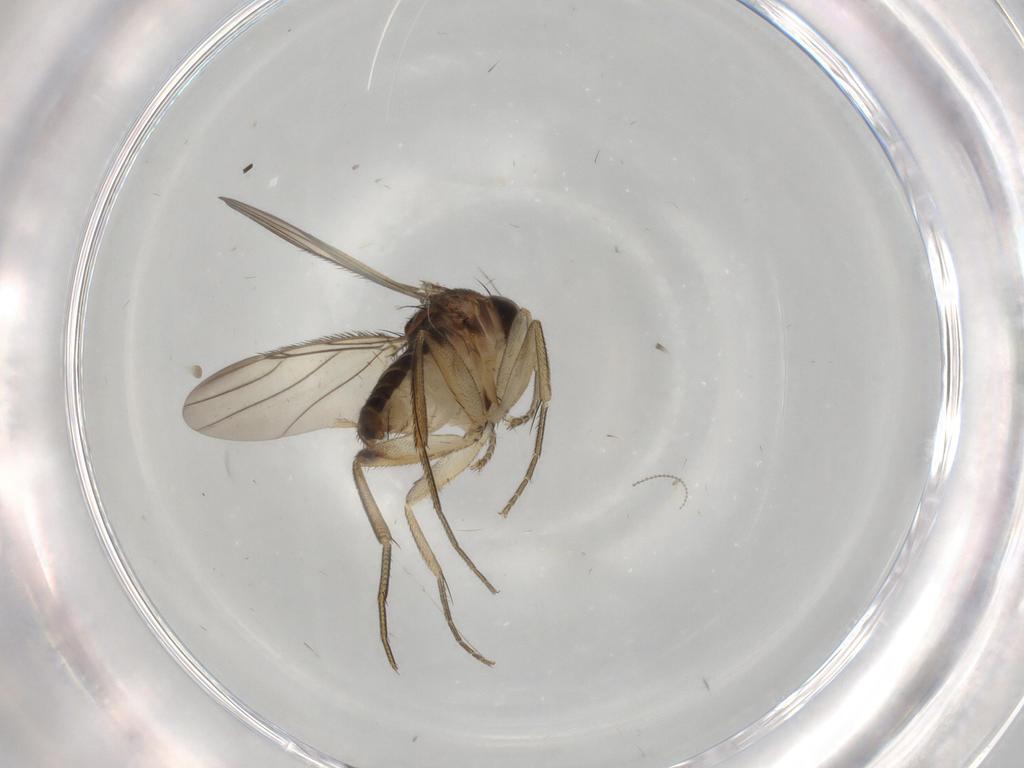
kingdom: Animalia
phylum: Arthropoda
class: Insecta
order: Diptera
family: Phoridae
